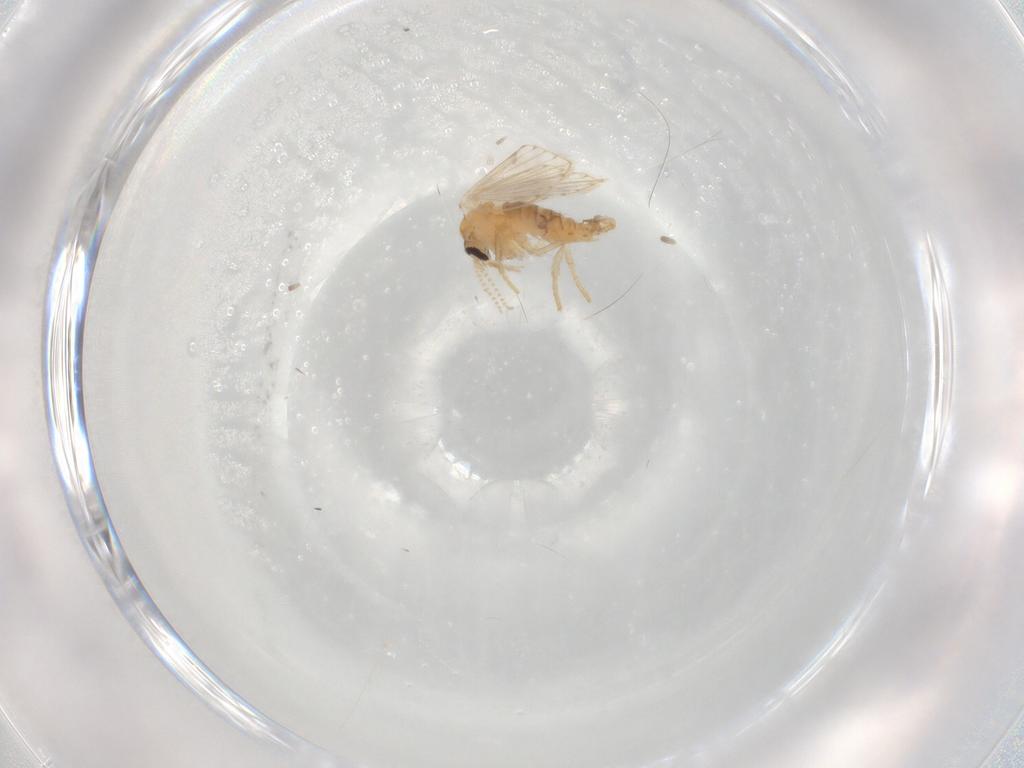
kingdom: Animalia
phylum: Arthropoda
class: Insecta
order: Diptera
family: Psychodidae
